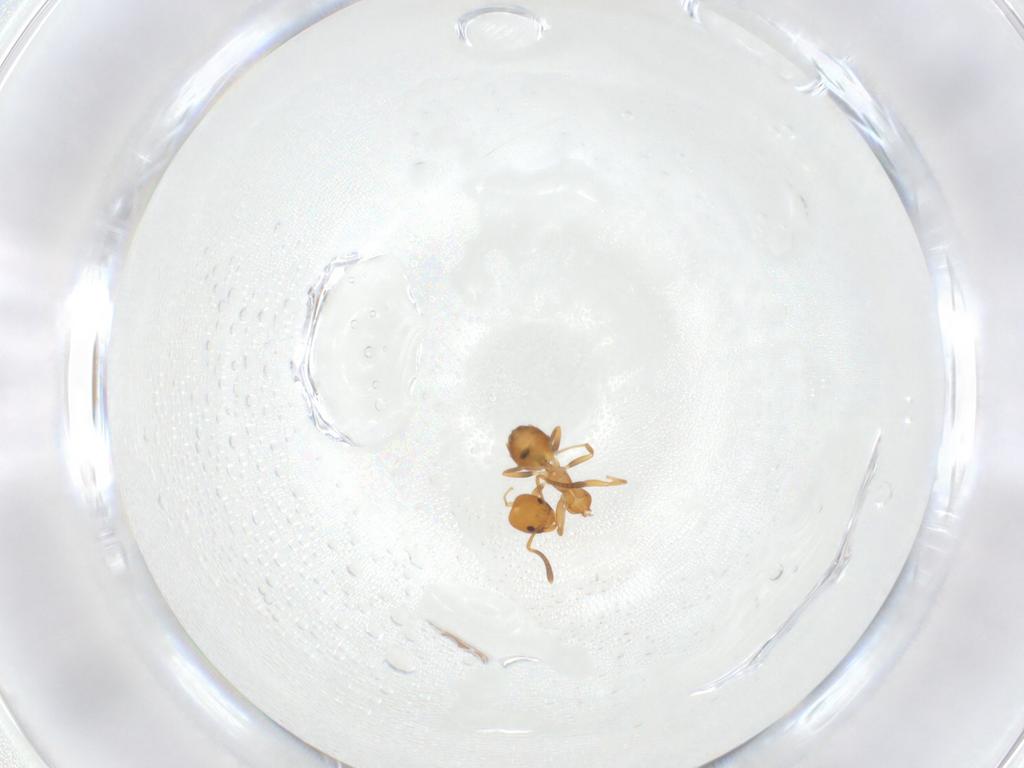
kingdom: Animalia
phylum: Arthropoda
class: Insecta
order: Hymenoptera
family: Formicidae
